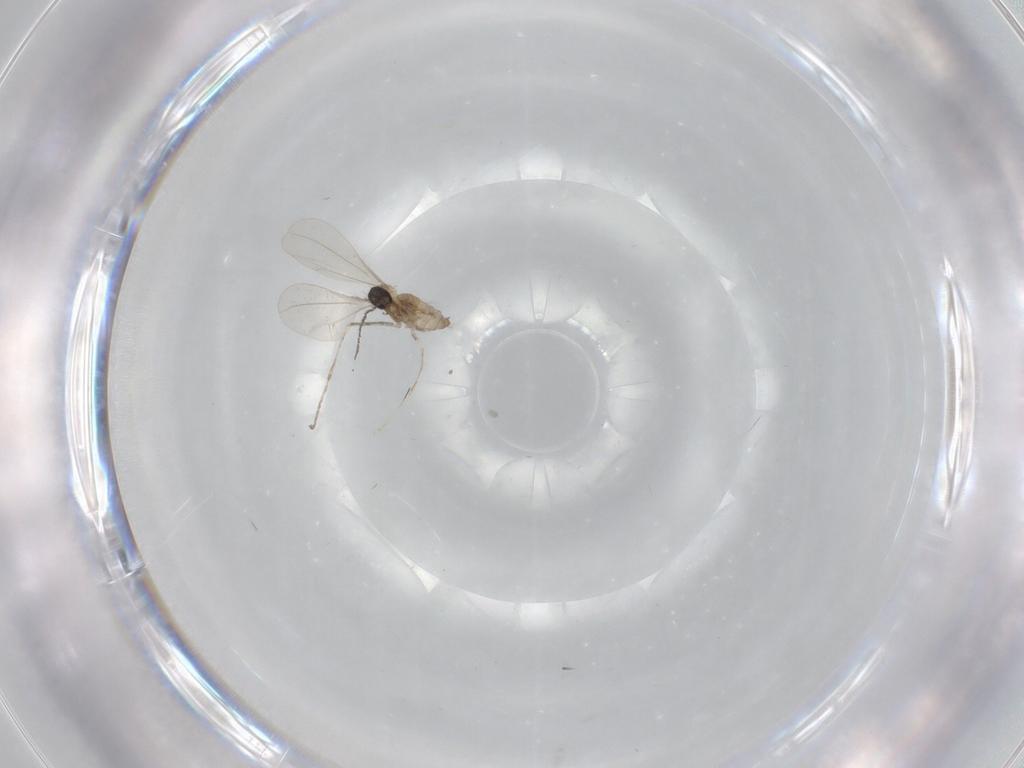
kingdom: Animalia
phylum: Arthropoda
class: Insecta
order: Diptera
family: Cecidomyiidae
